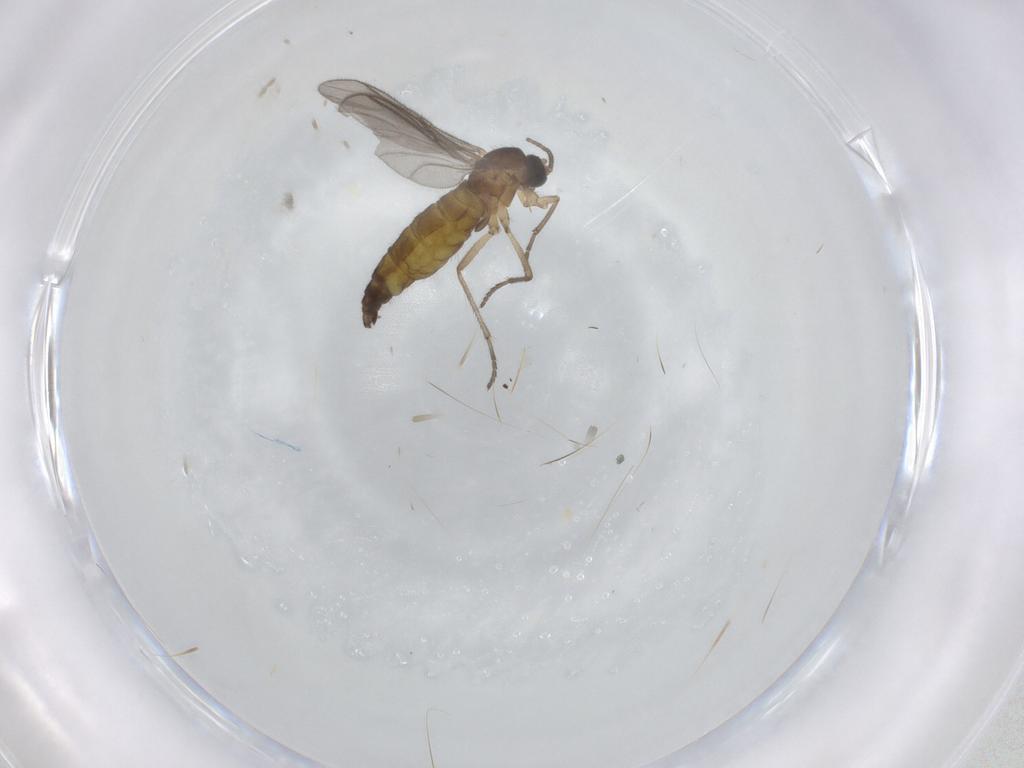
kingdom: Animalia
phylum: Arthropoda
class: Insecta
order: Diptera
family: Sciaridae
